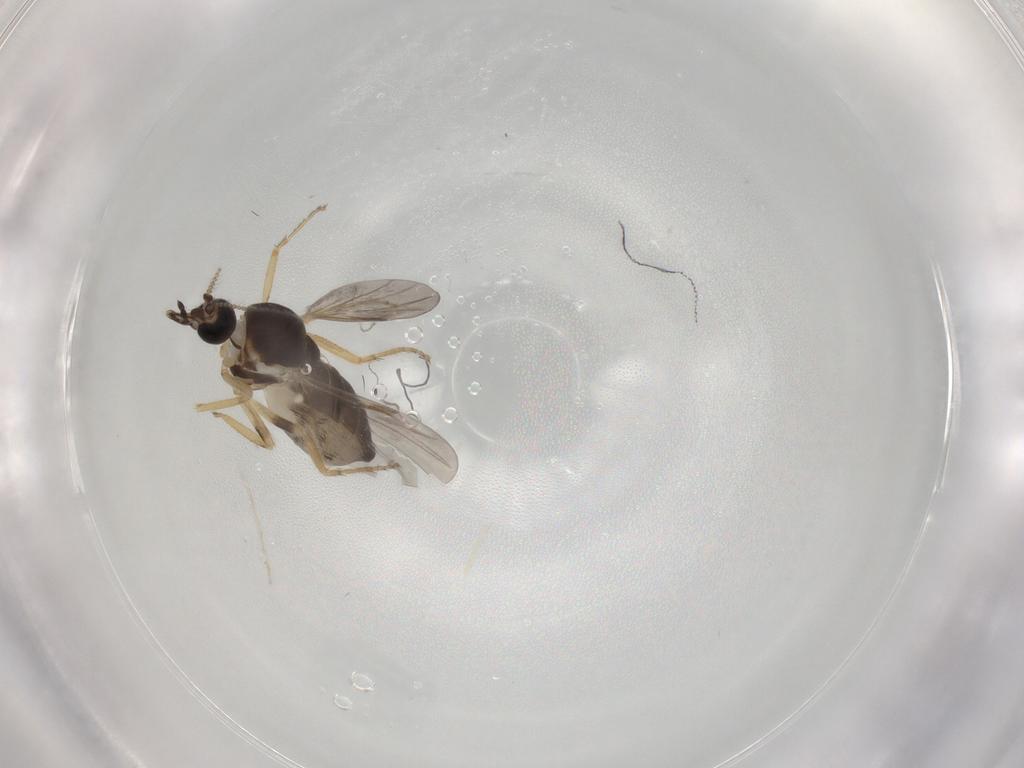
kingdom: Animalia
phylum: Arthropoda
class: Insecta
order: Diptera
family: Ceratopogonidae
